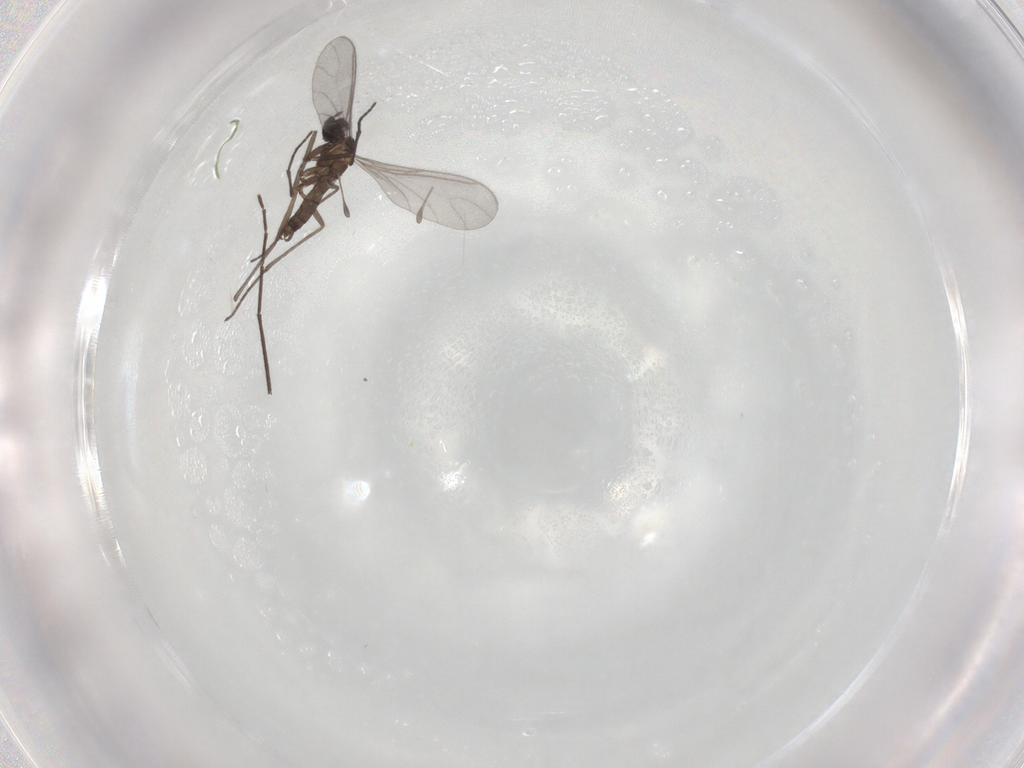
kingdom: Animalia
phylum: Arthropoda
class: Insecta
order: Diptera
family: Sciaridae
